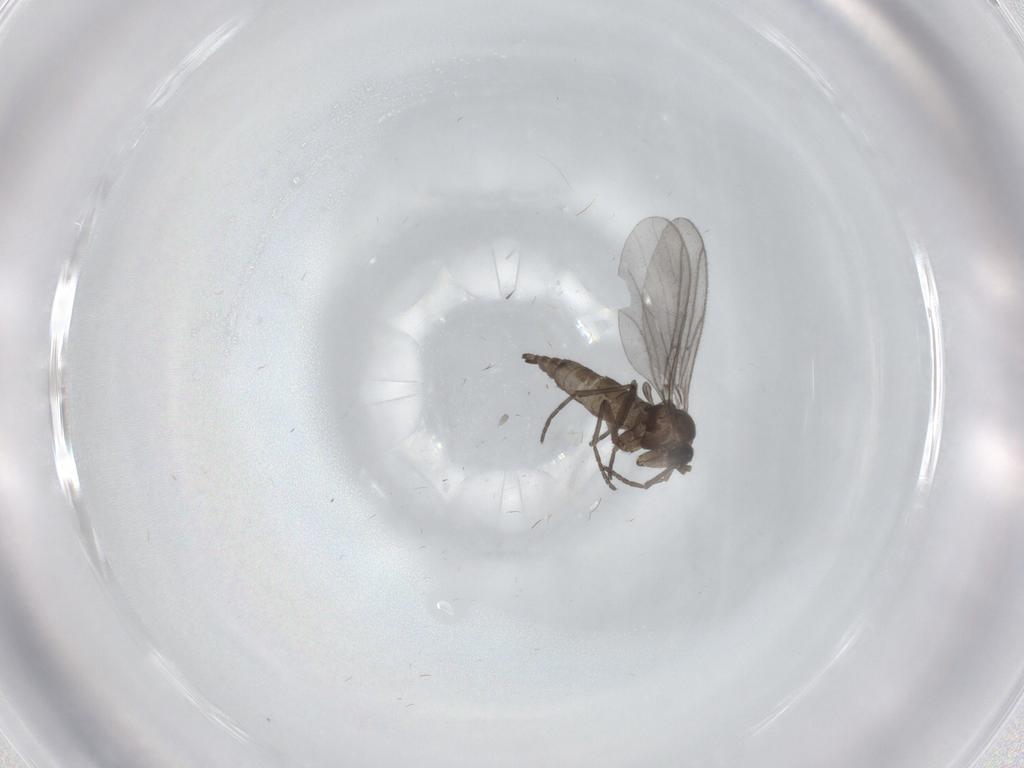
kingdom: Animalia
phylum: Arthropoda
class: Insecta
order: Diptera
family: Sciaridae
